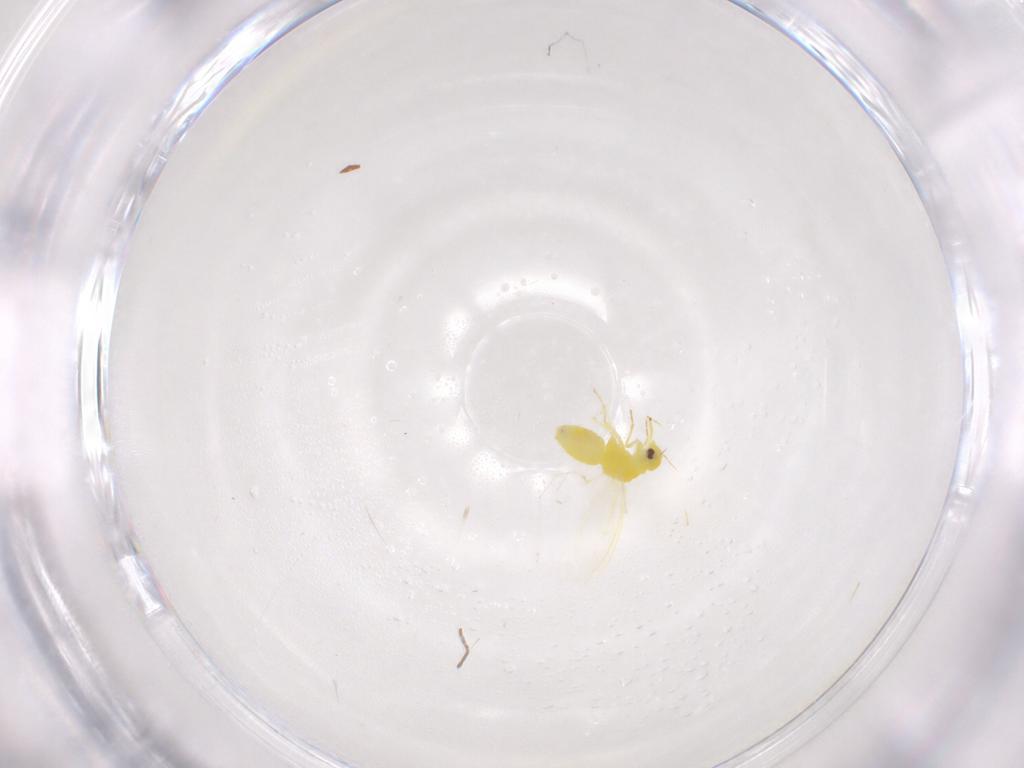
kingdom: Animalia
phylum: Arthropoda
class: Insecta
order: Hemiptera
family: Aleyrodidae
